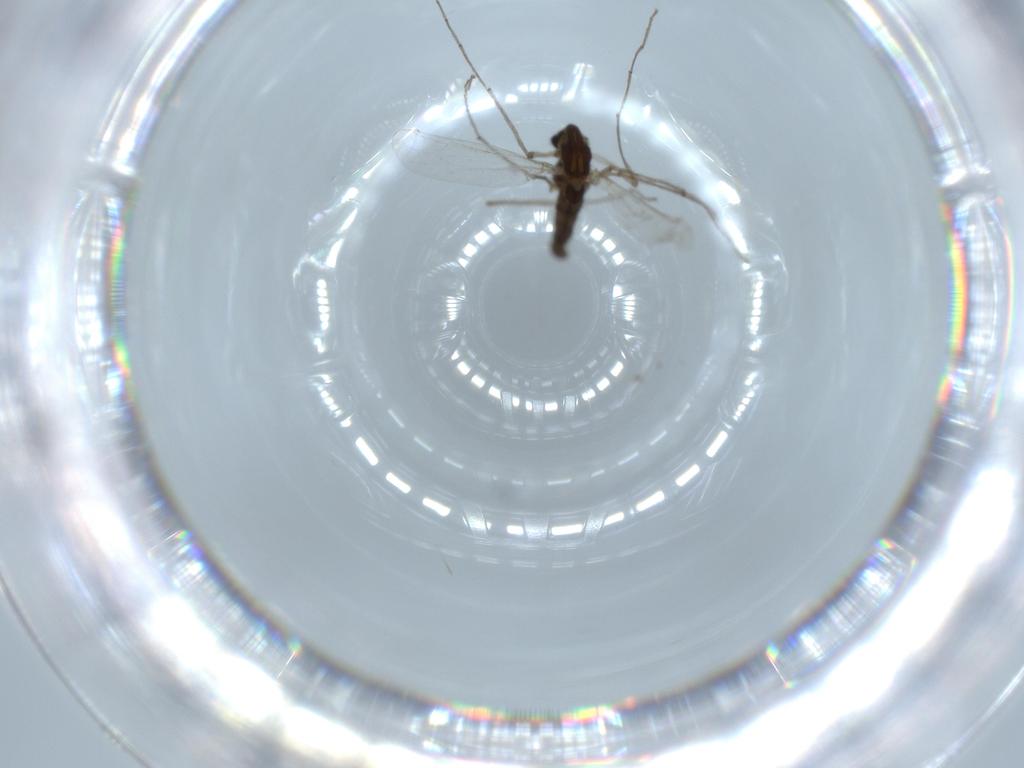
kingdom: Animalia
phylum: Arthropoda
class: Insecta
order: Diptera
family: Chironomidae
